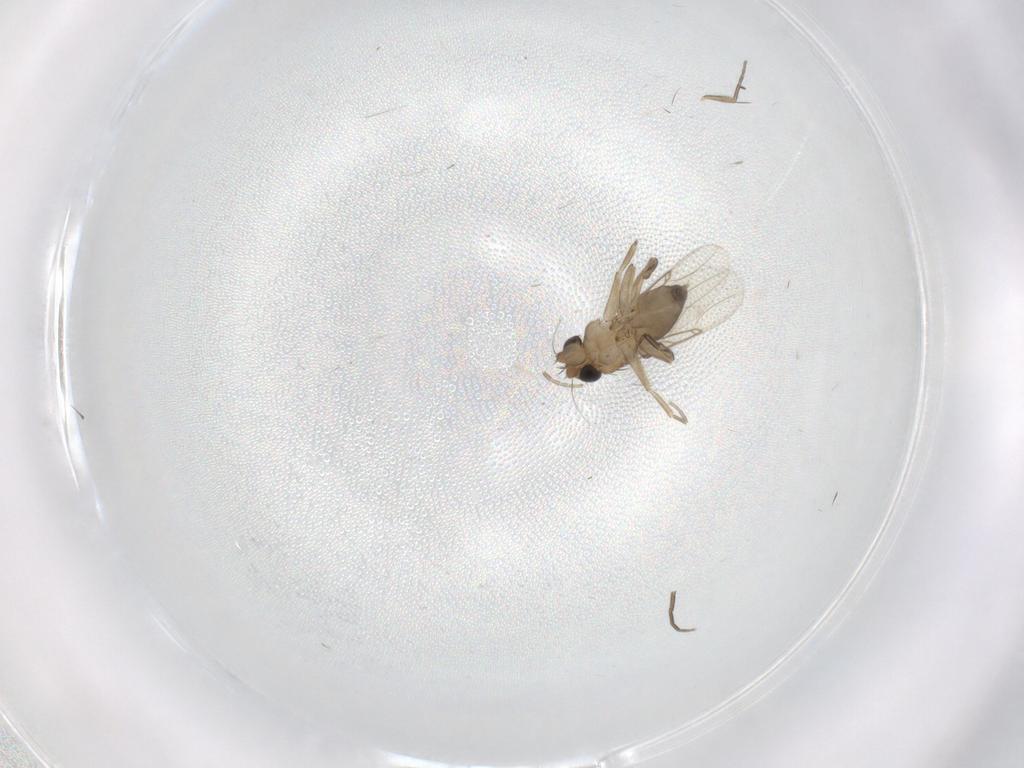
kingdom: Animalia
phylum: Arthropoda
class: Insecta
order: Diptera
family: Phoridae
